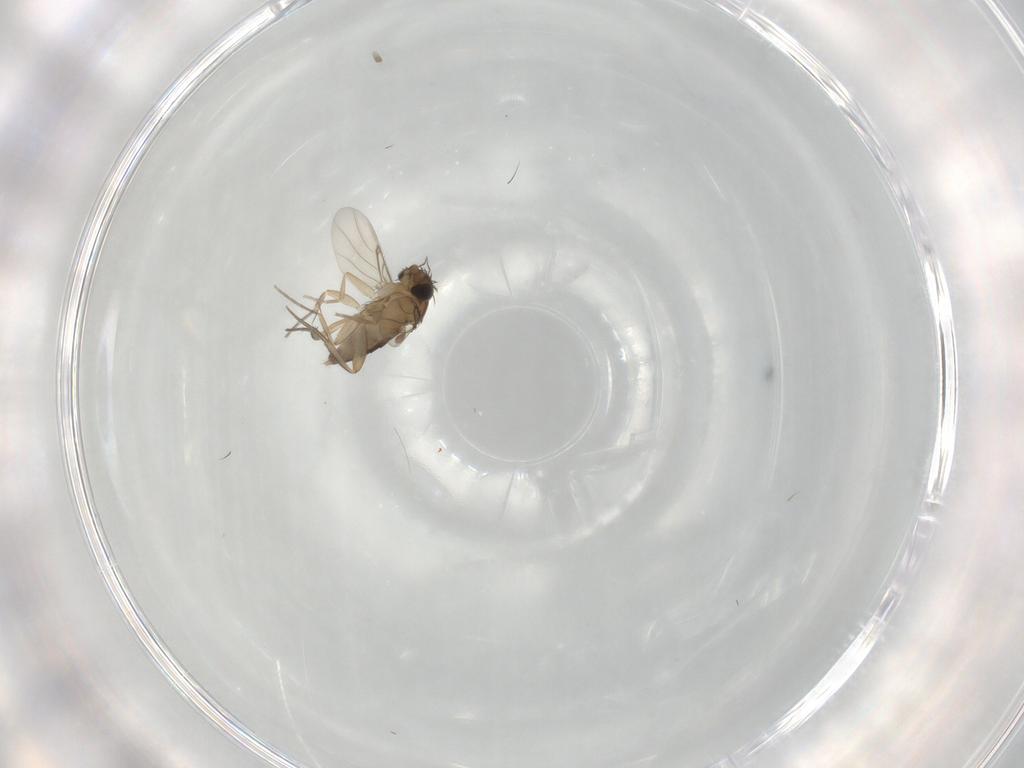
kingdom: Animalia
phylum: Arthropoda
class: Insecta
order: Diptera
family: Phoridae
